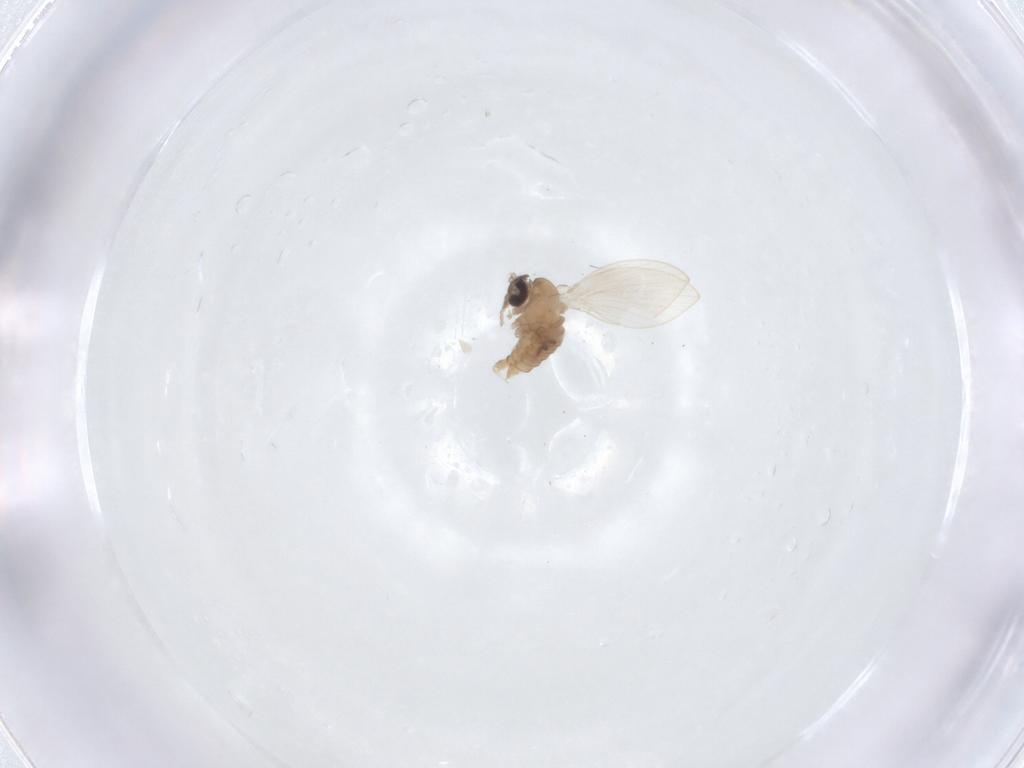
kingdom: Animalia
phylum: Arthropoda
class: Insecta
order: Diptera
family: Psychodidae
